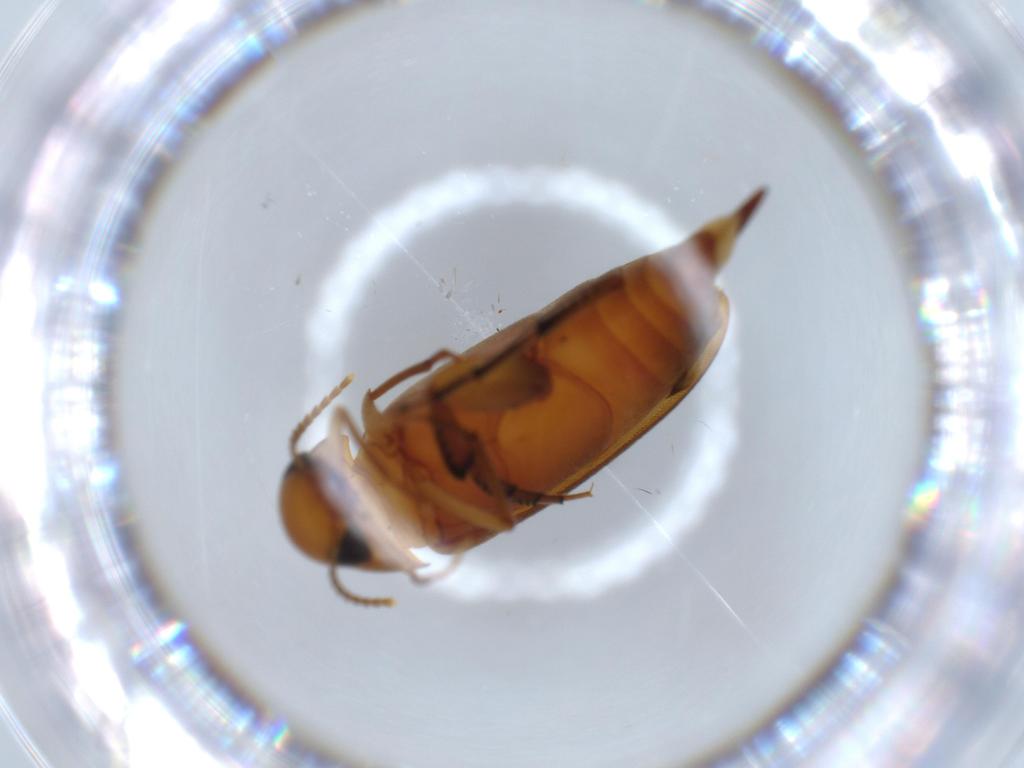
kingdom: Animalia
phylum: Arthropoda
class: Insecta
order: Coleoptera
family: Mordellidae
